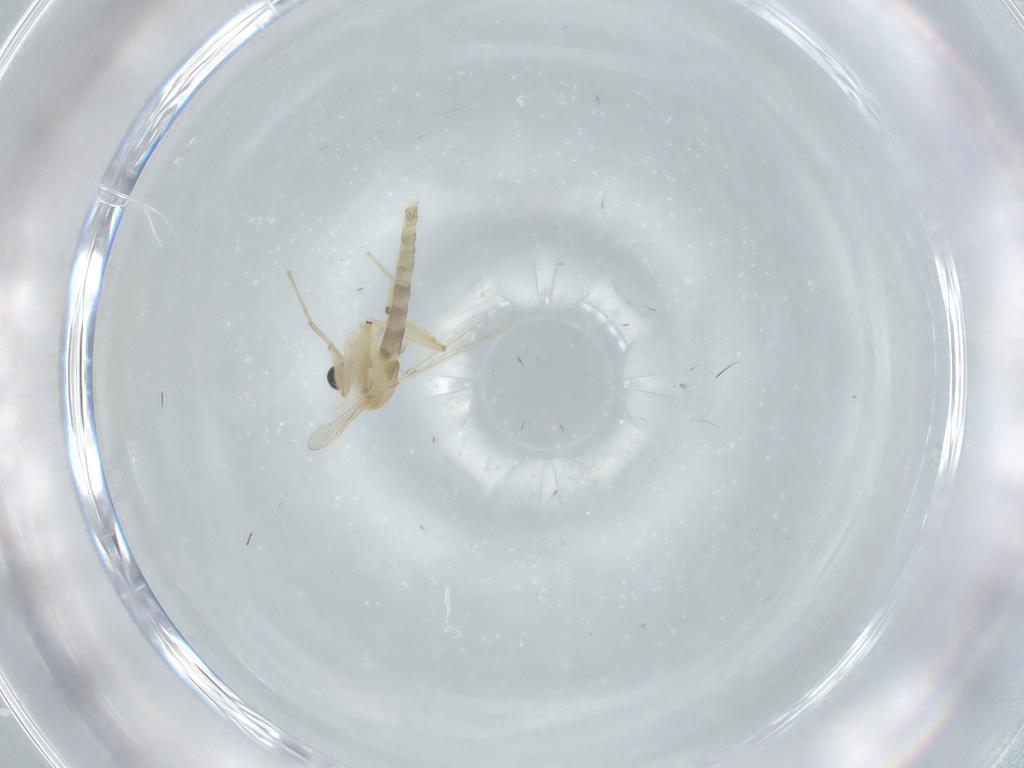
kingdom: Animalia
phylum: Arthropoda
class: Insecta
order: Diptera
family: Chironomidae
